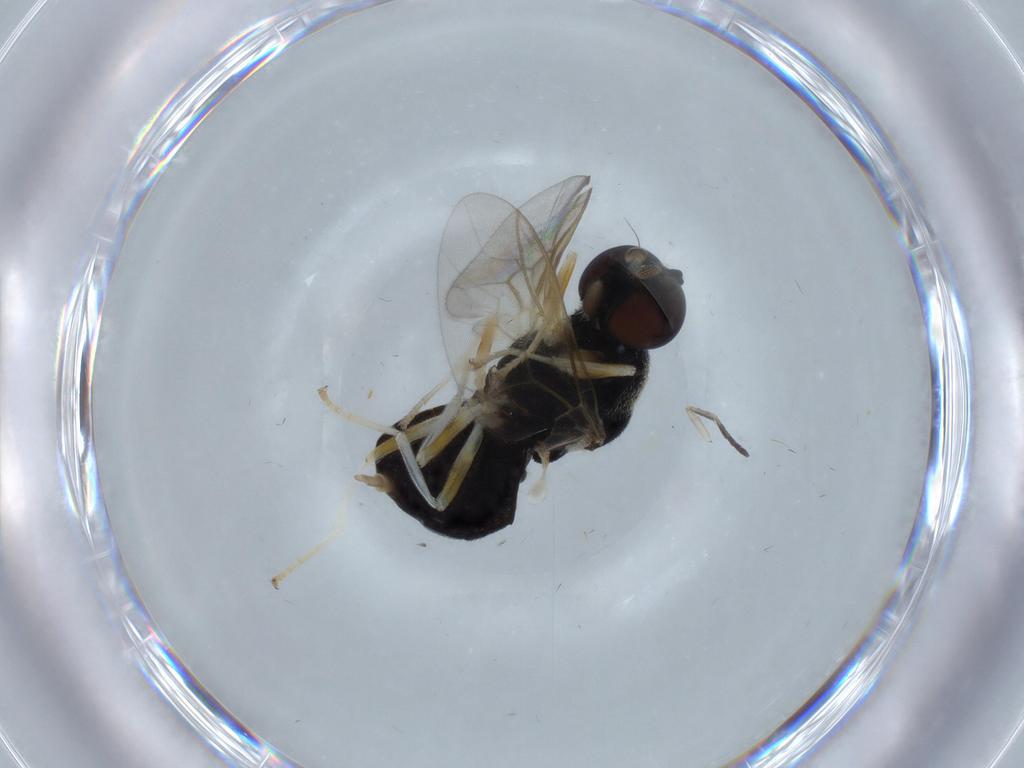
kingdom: Animalia
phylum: Arthropoda
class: Insecta
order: Diptera
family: Stratiomyidae
